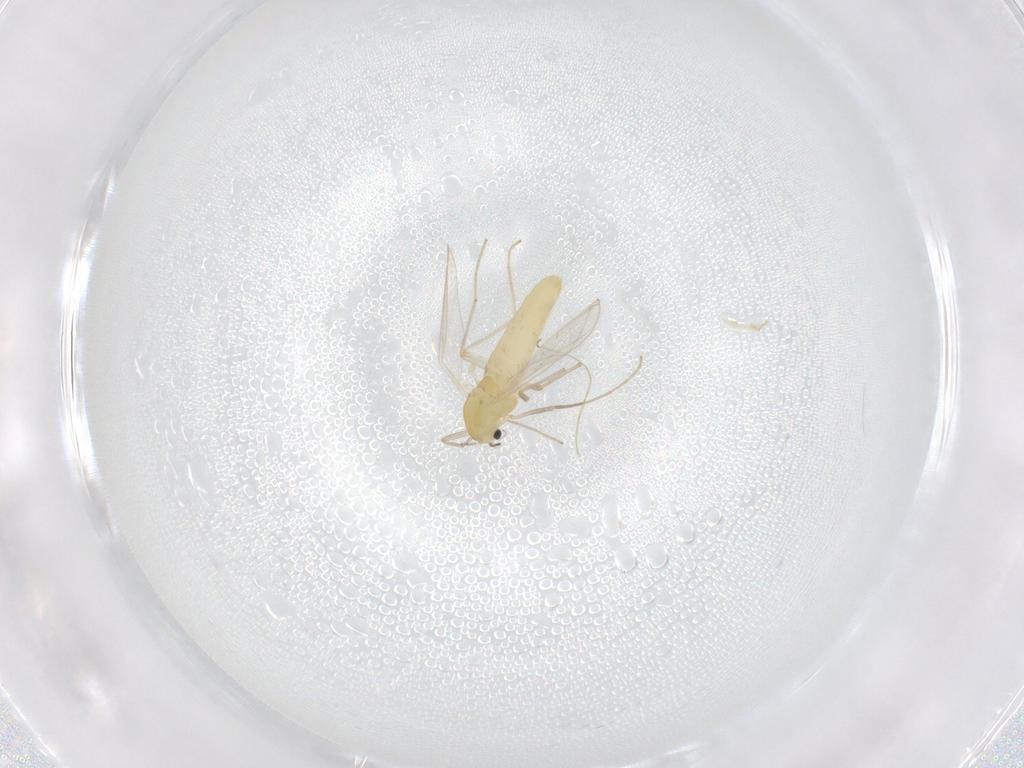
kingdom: Animalia
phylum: Arthropoda
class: Insecta
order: Diptera
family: Chironomidae
